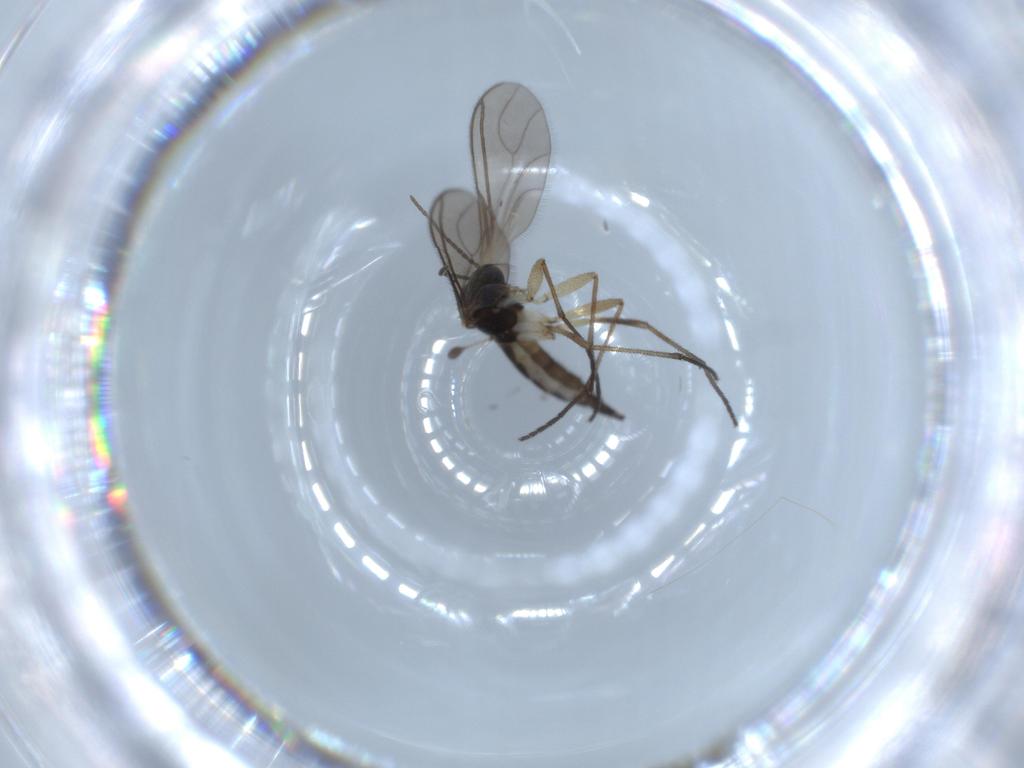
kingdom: Animalia
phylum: Arthropoda
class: Insecta
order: Diptera
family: Sciaridae
